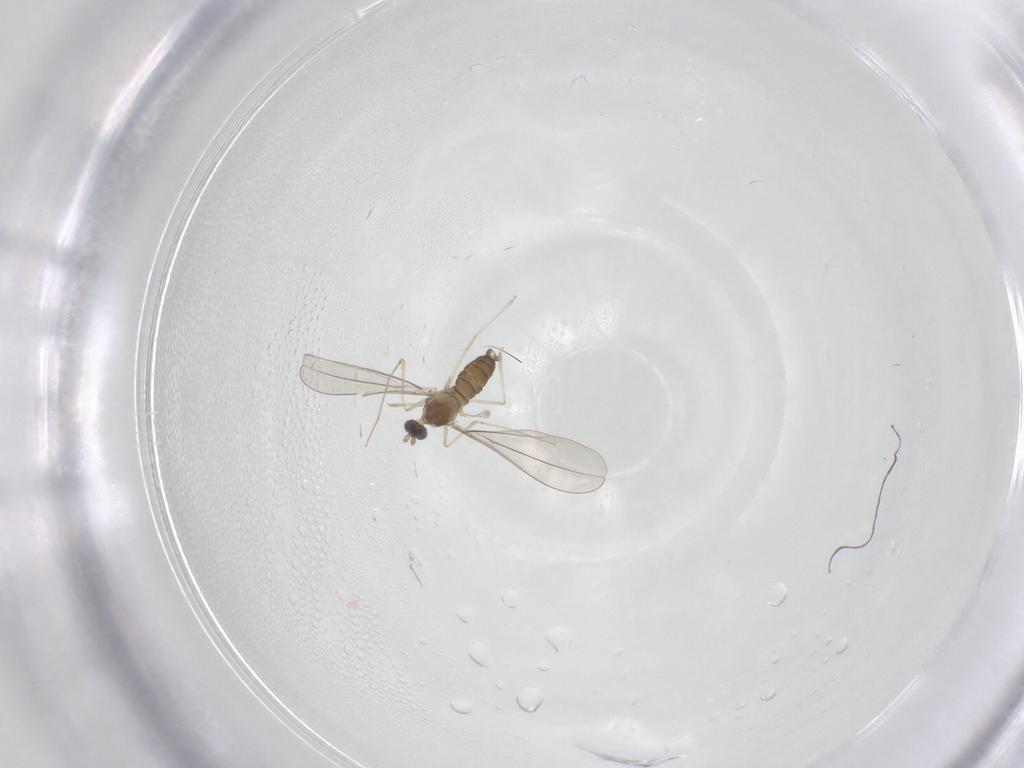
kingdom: Animalia
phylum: Arthropoda
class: Insecta
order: Diptera
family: Cecidomyiidae
